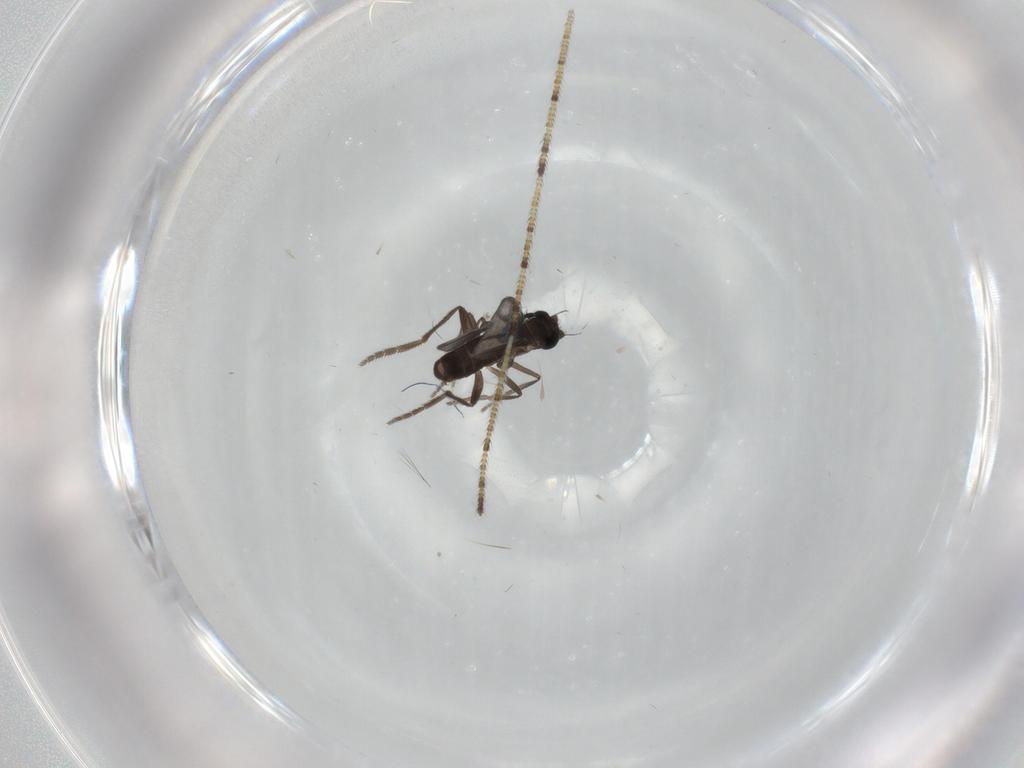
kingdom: Animalia
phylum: Arthropoda
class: Insecta
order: Diptera
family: Phoridae
